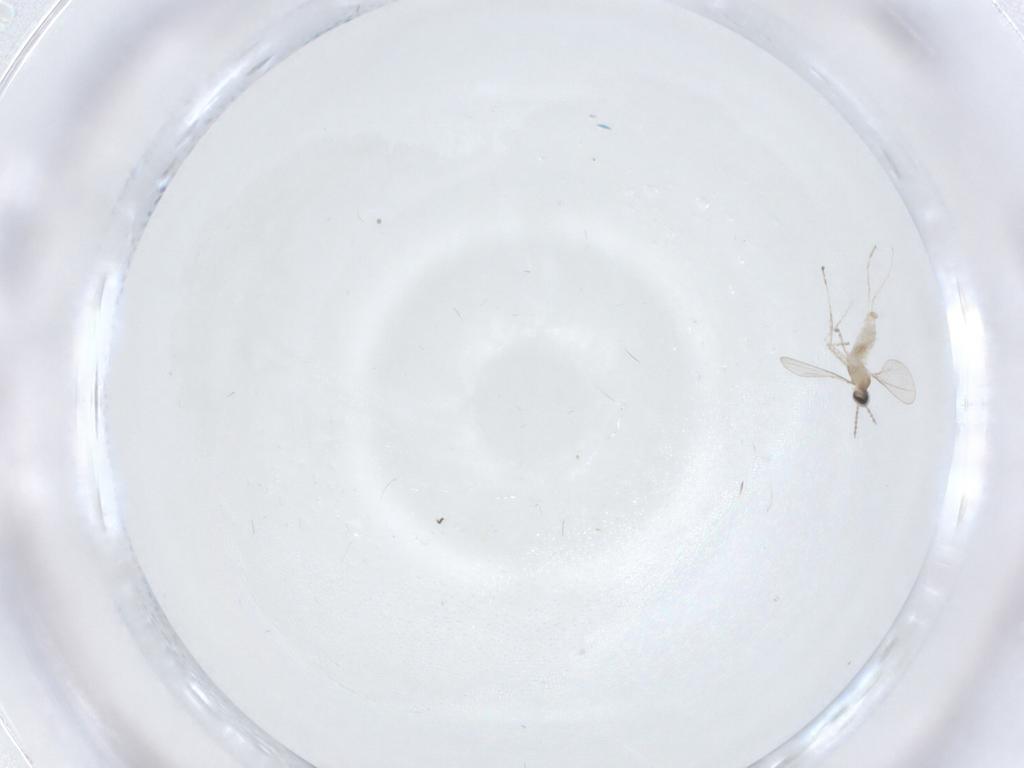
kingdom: Animalia
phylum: Arthropoda
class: Insecta
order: Diptera
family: Cecidomyiidae
